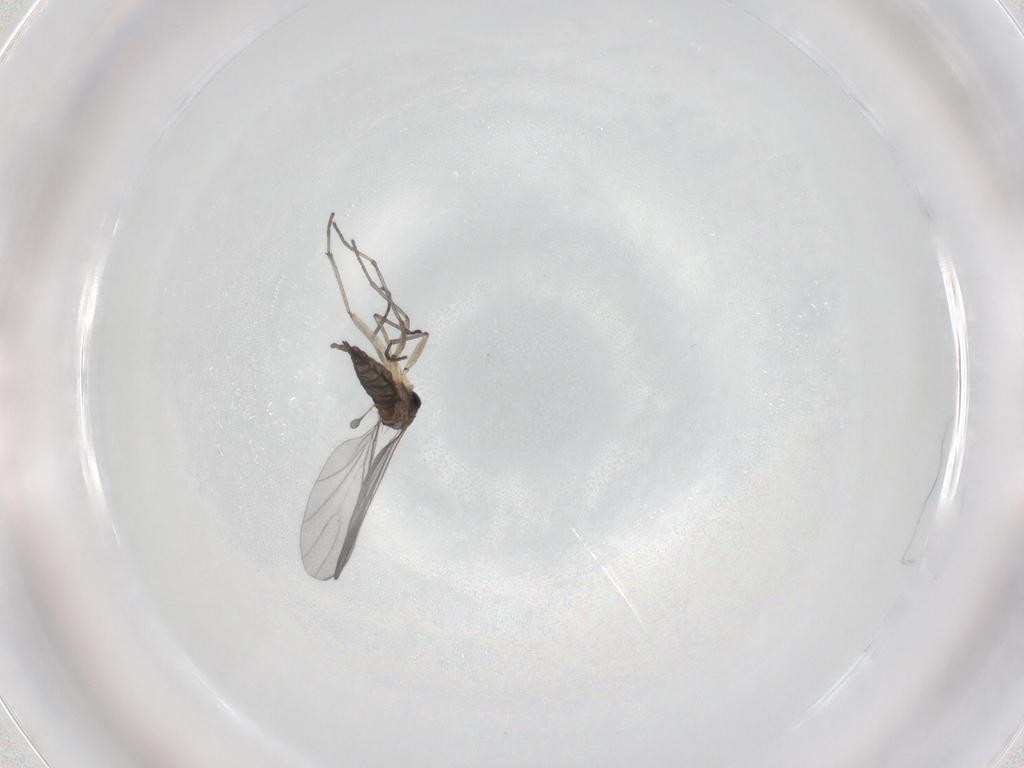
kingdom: Animalia
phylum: Arthropoda
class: Insecta
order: Diptera
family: Sciaridae
